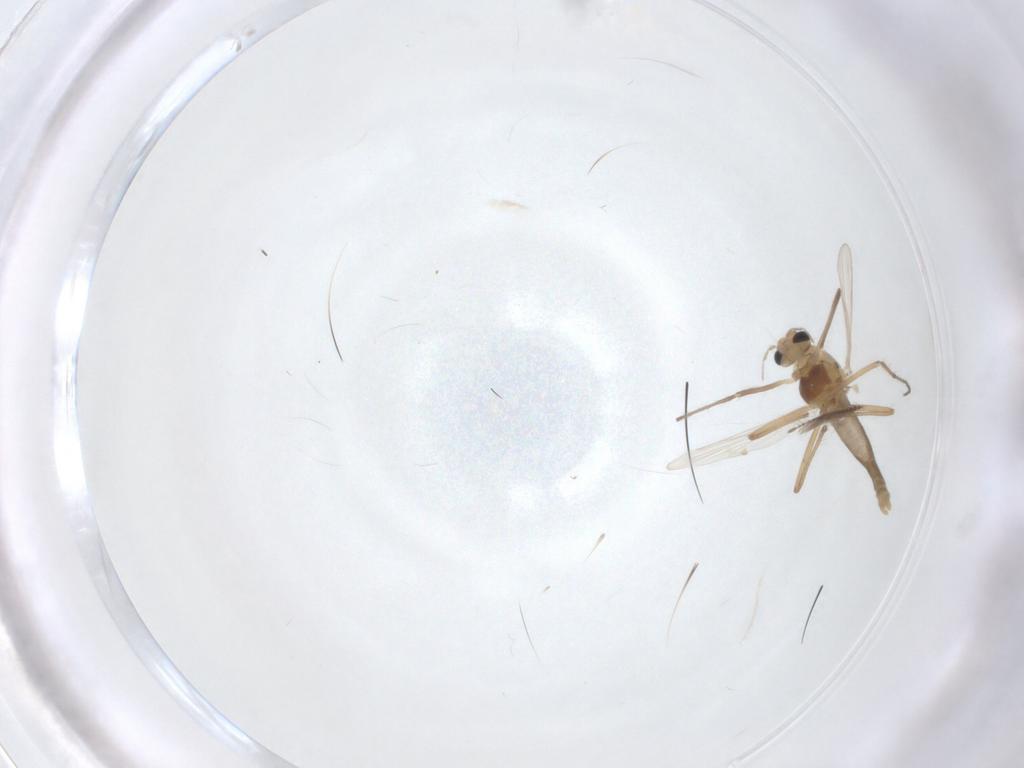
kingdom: Animalia
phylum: Arthropoda
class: Insecta
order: Diptera
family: Chironomidae
